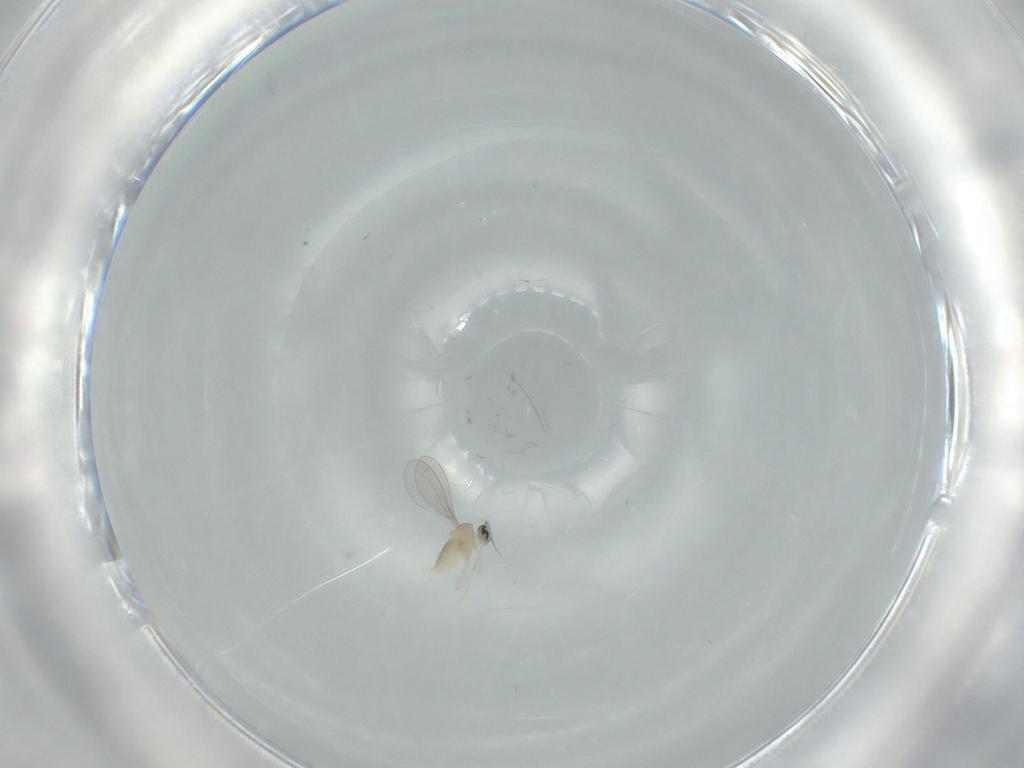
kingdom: Animalia
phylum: Arthropoda
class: Insecta
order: Diptera
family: Cecidomyiidae
